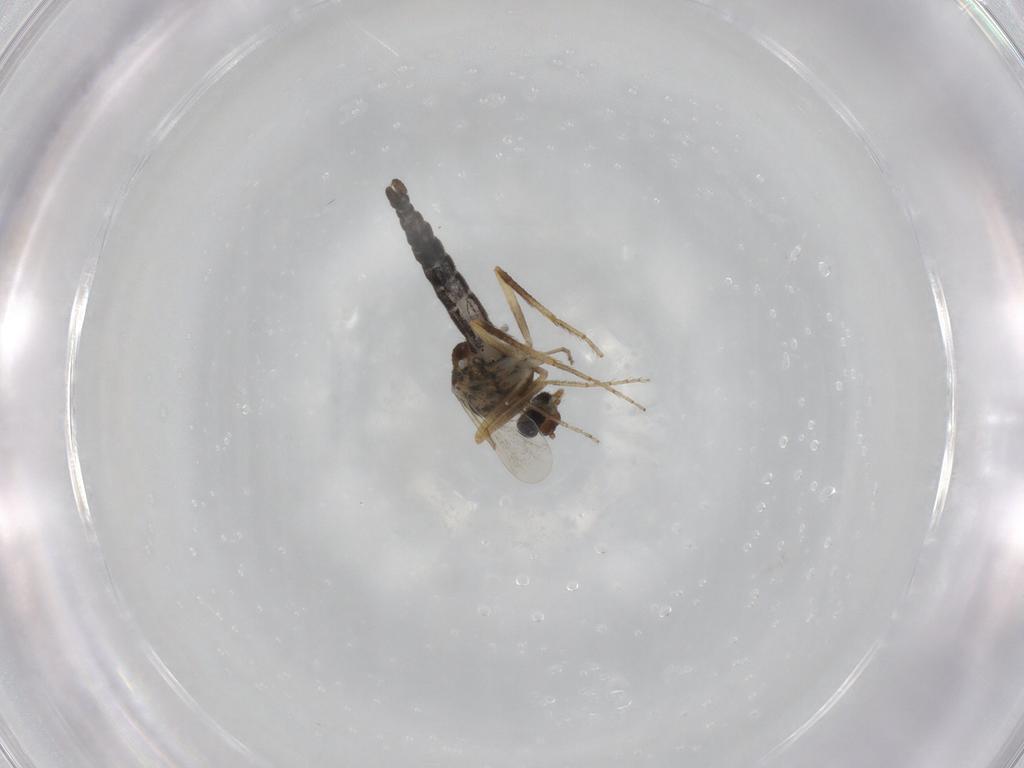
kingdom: Animalia
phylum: Arthropoda
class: Insecta
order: Diptera
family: Ceratopogonidae
